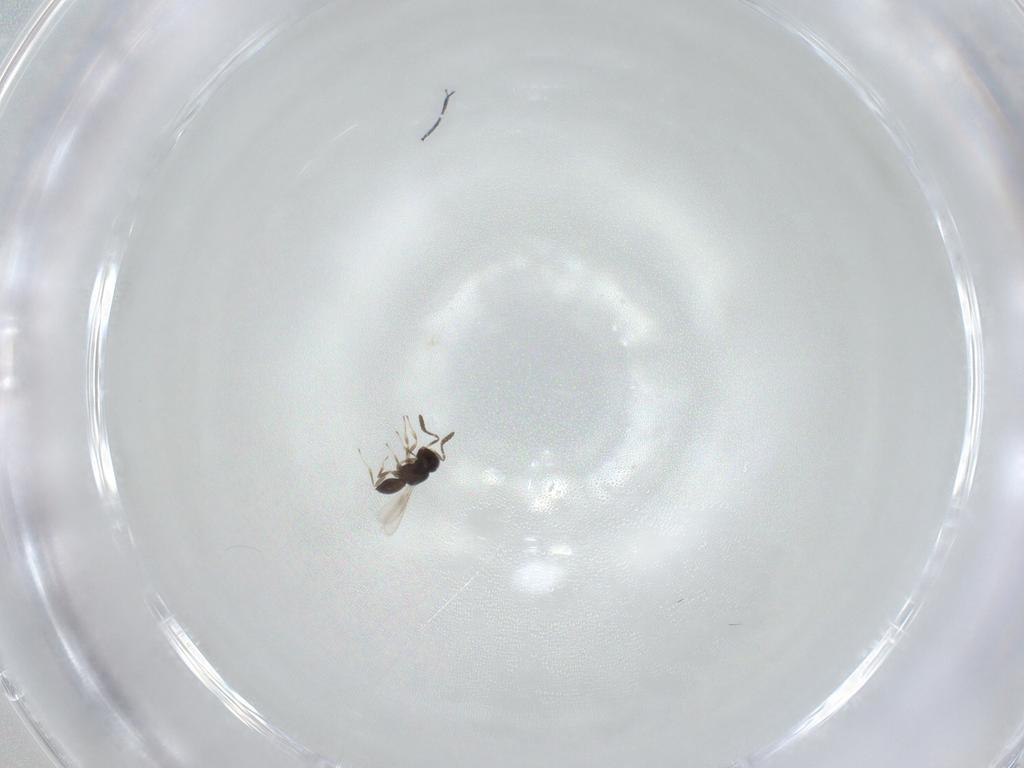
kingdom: Animalia
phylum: Arthropoda
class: Insecta
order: Hymenoptera
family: Scelionidae
